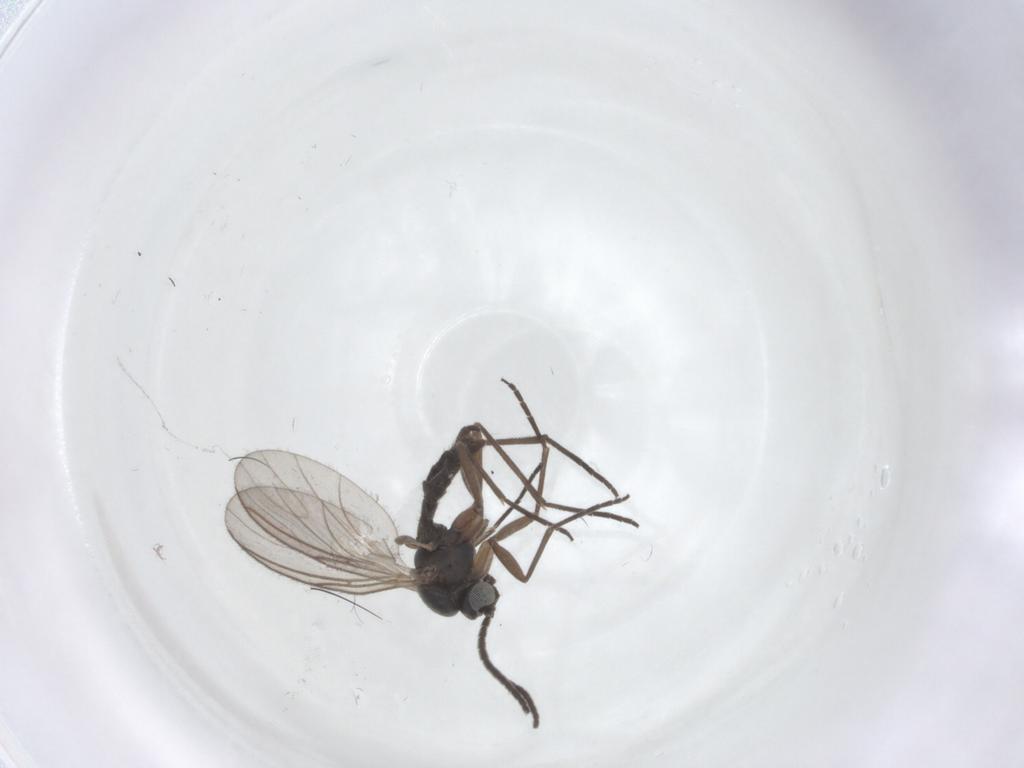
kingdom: Animalia
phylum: Arthropoda
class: Insecta
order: Diptera
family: Sciaridae
